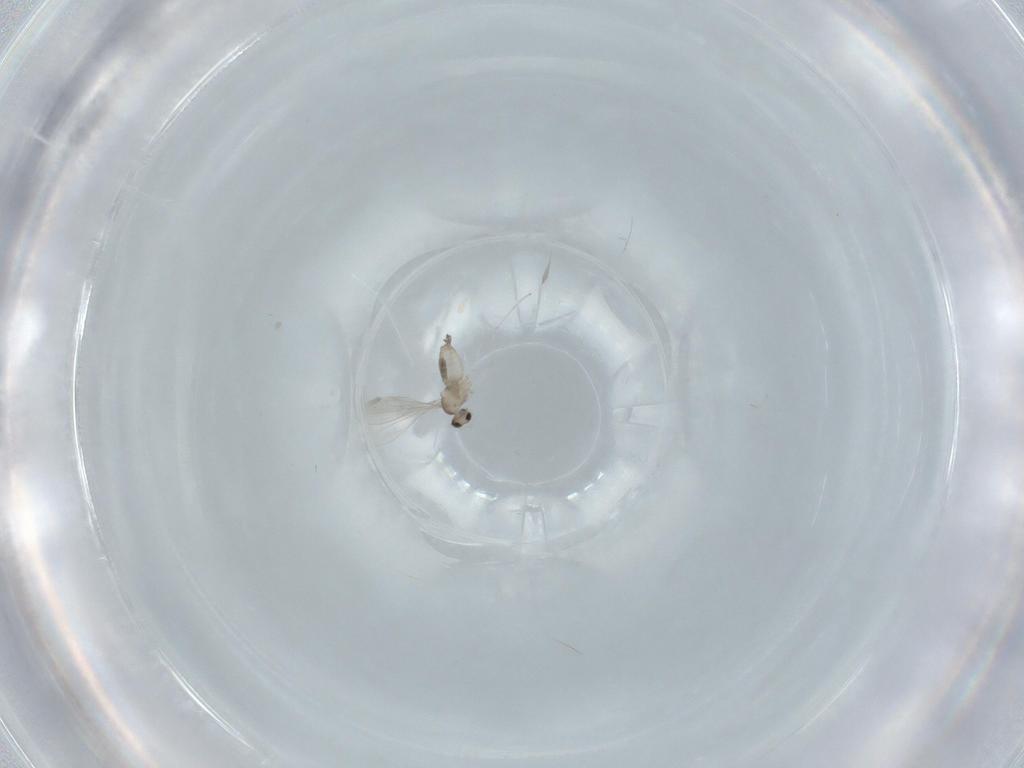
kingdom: Animalia
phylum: Arthropoda
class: Insecta
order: Diptera
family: Cecidomyiidae
